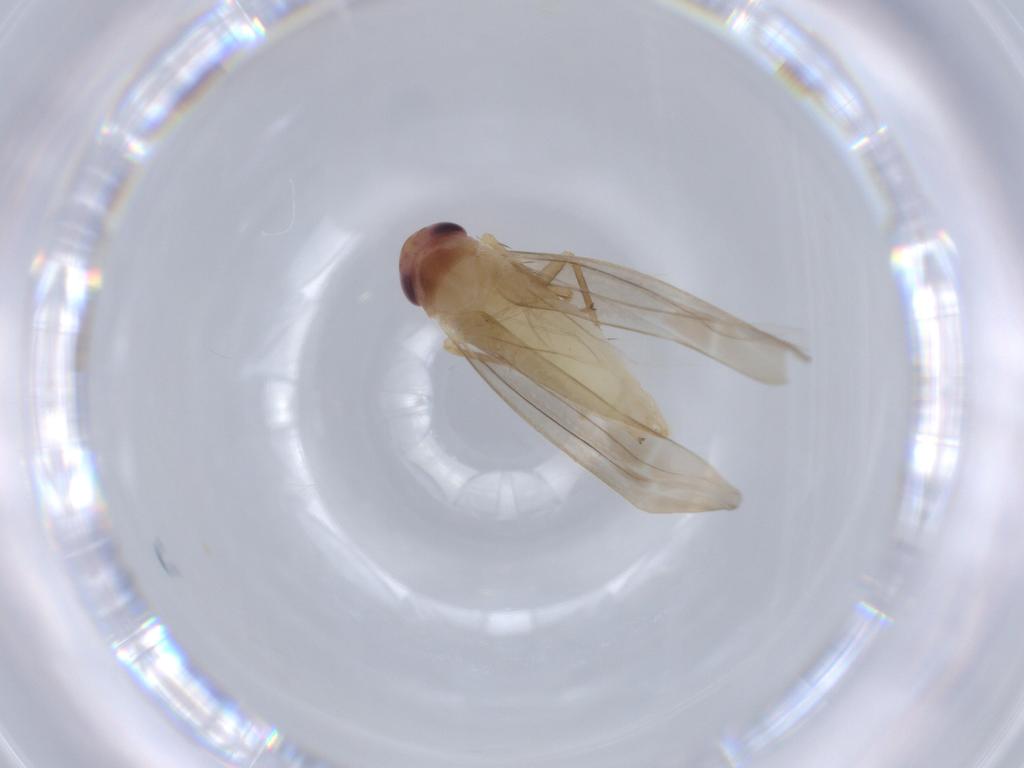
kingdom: Animalia
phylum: Arthropoda
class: Insecta
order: Hemiptera
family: Cicadellidae
